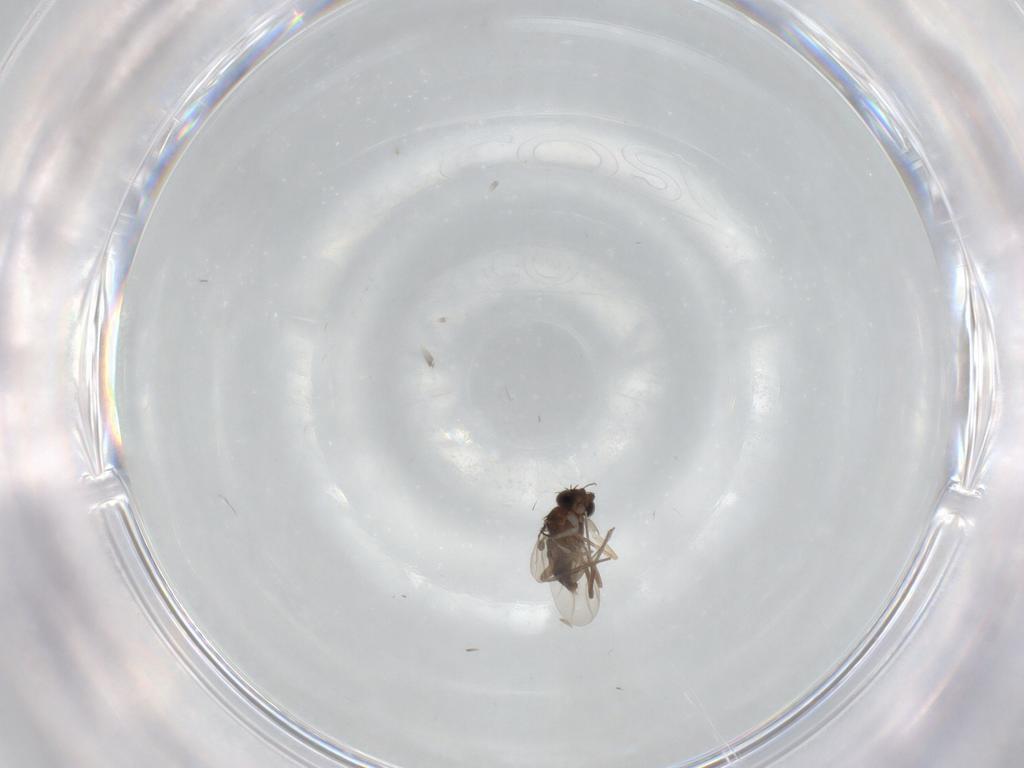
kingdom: Animalia
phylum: Arthropoda
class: Insecta
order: Diptera
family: Phoridae
